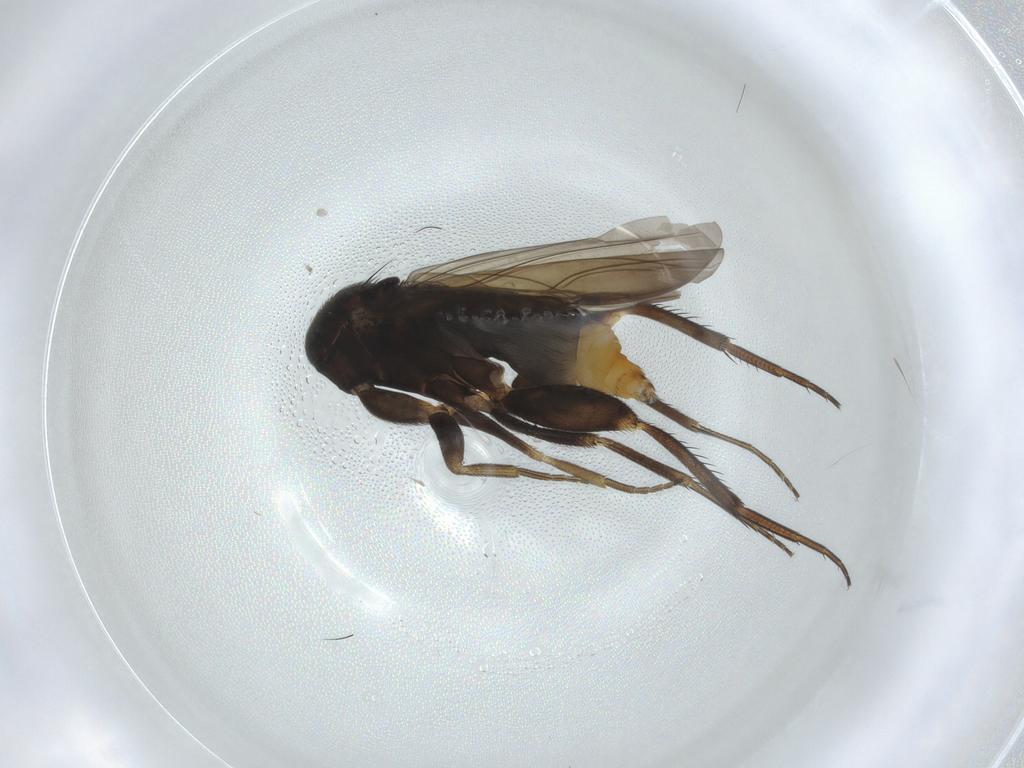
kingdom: Animalia
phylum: Arthropoda
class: Insecta
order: Diptera
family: Phoridae
